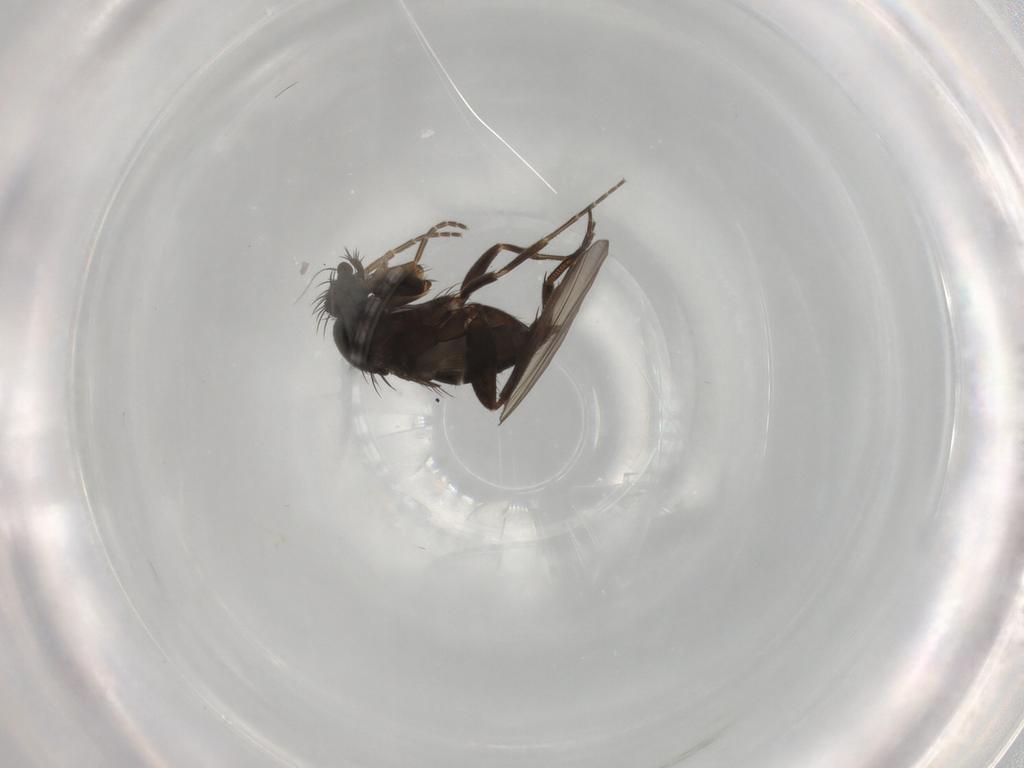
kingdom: Animalia
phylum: Arthropoda
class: Insecta
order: Diptera
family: Phoridae
